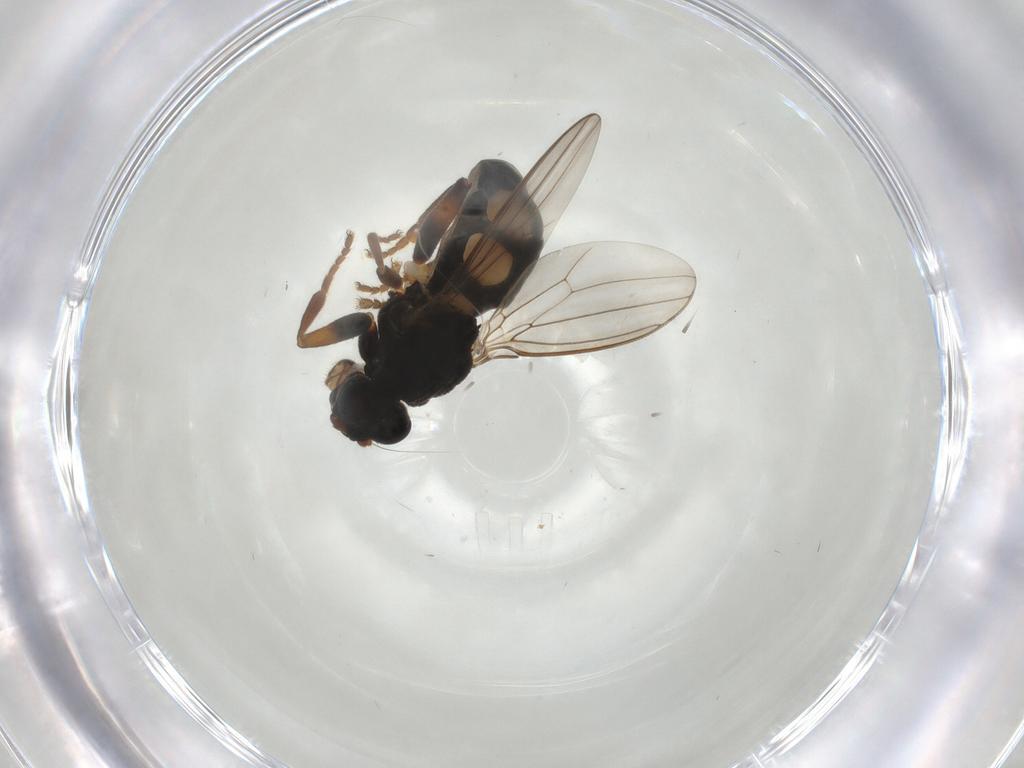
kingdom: Animalia
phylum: Arthropoda
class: Insecta
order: Diptera
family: Sphaeroceridae
